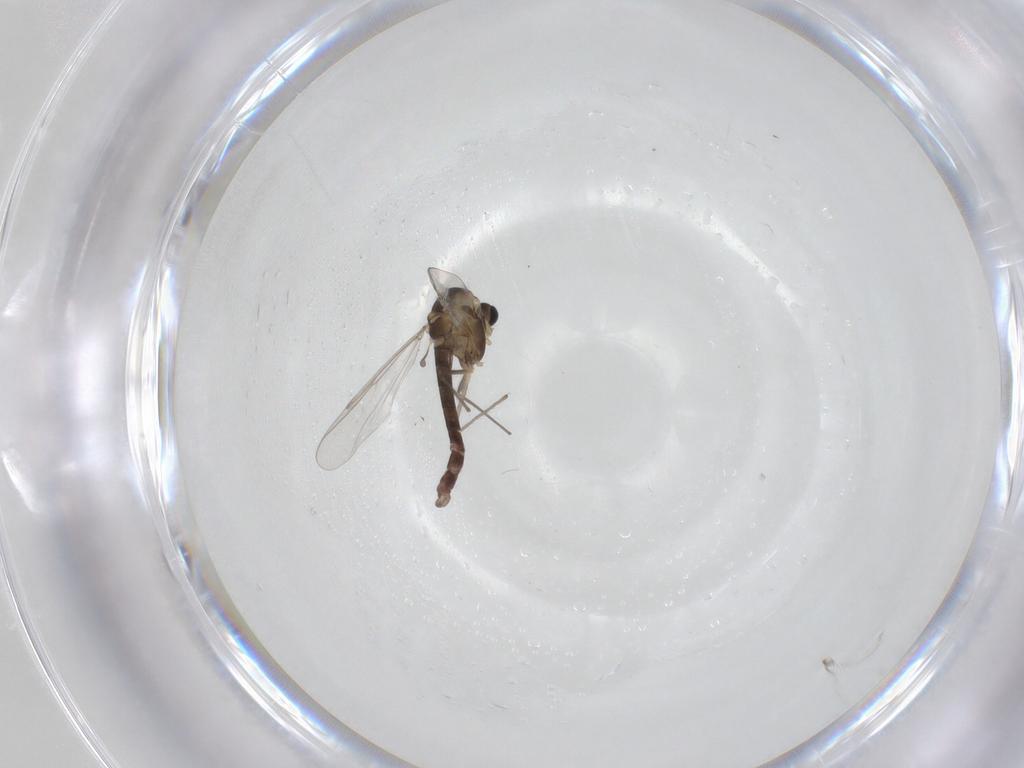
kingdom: Animalia
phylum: Arthropoda
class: Insecta
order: Diptera
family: Chironomidae
